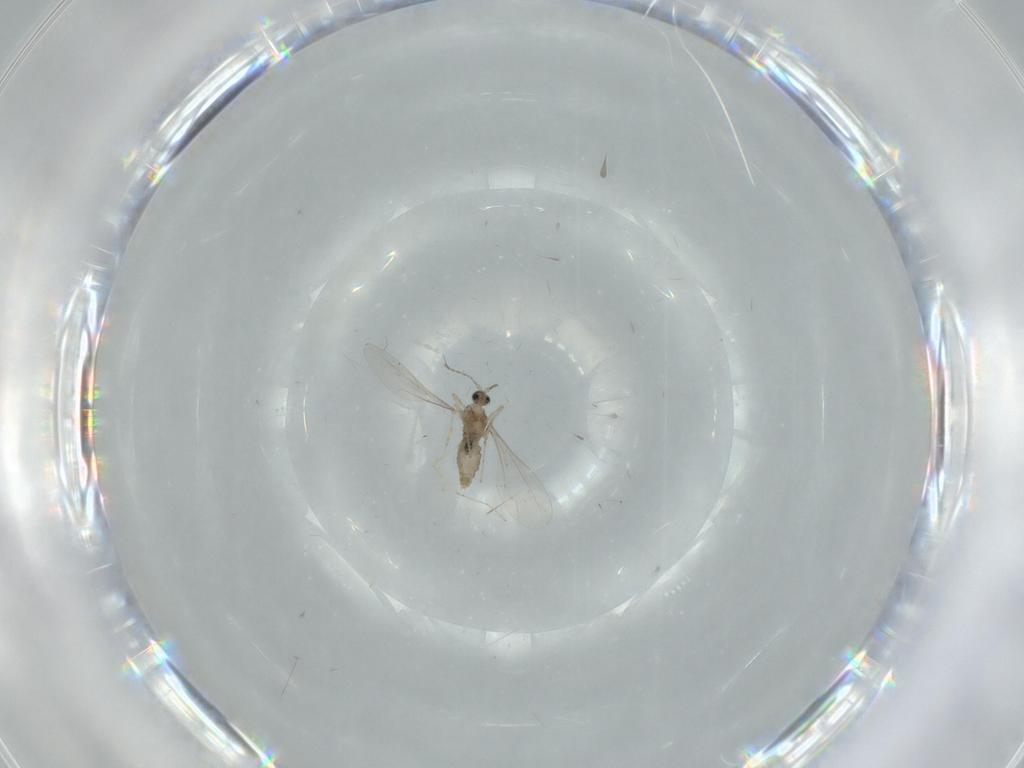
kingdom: Animalia
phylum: Arthropoda
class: Insecta
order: Diptera
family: Cecidomyiidae
